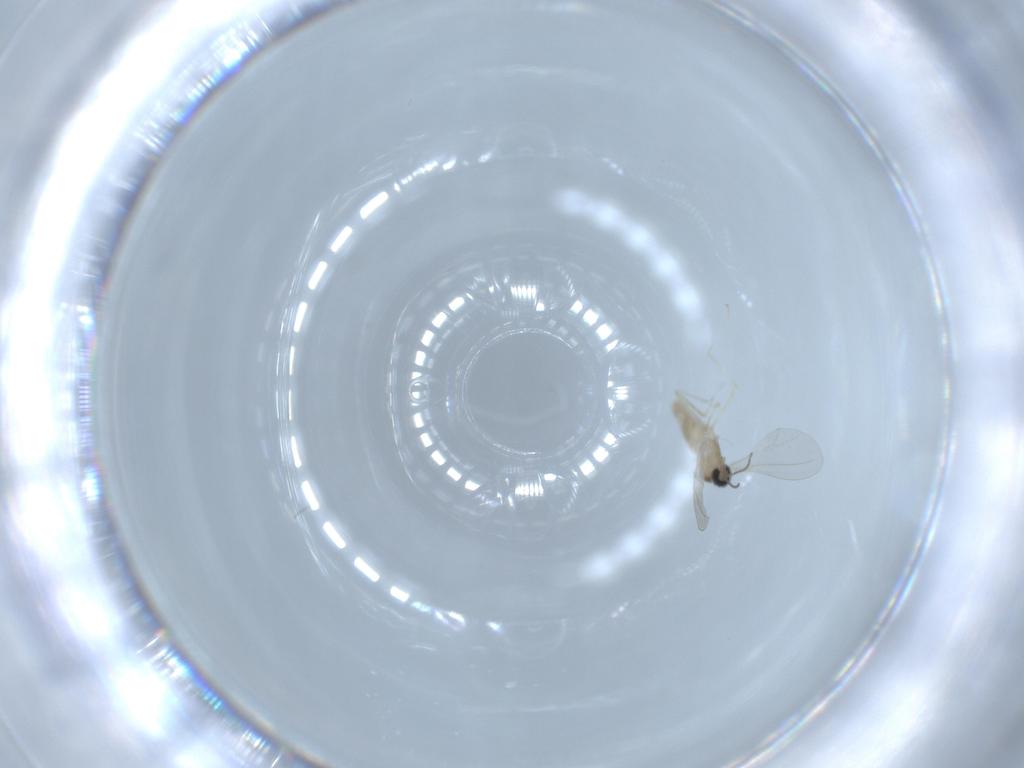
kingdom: Animalia
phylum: Arthropoda
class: Insecta
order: Diptera
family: Cecidomyiidae
